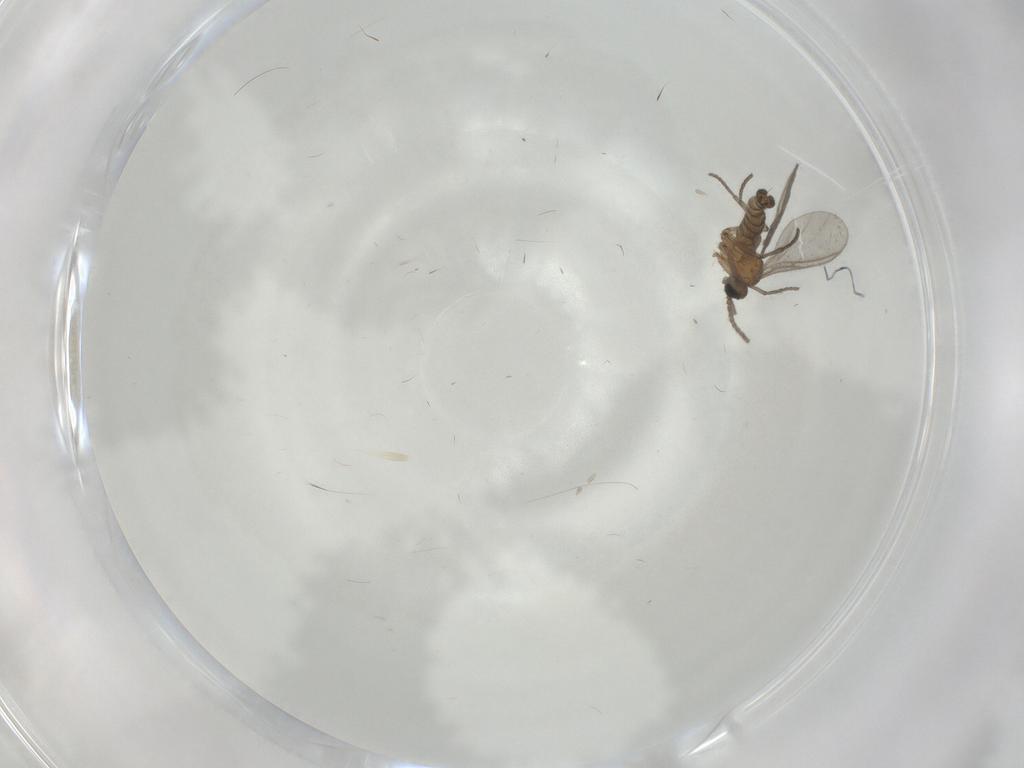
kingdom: Animalia
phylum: Arthropoda
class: Insecta
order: Diptera
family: Sciaridae
